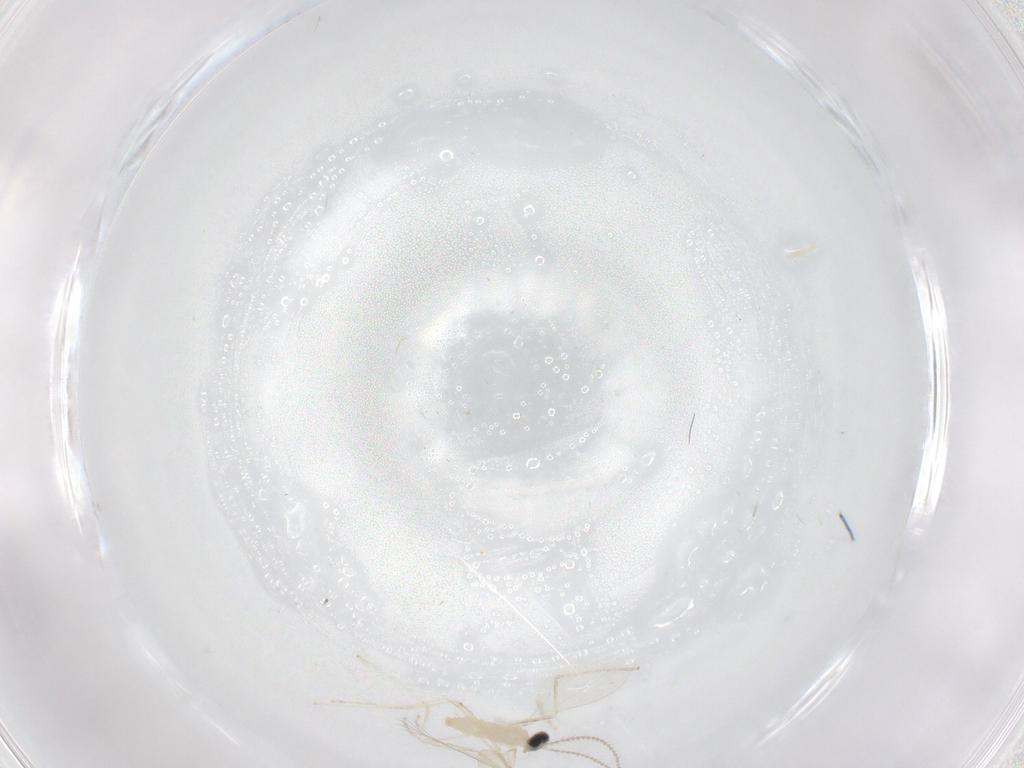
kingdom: Animalia
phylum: Arthropoda
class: Insecta
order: Diptera
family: Cecidomyiidae
